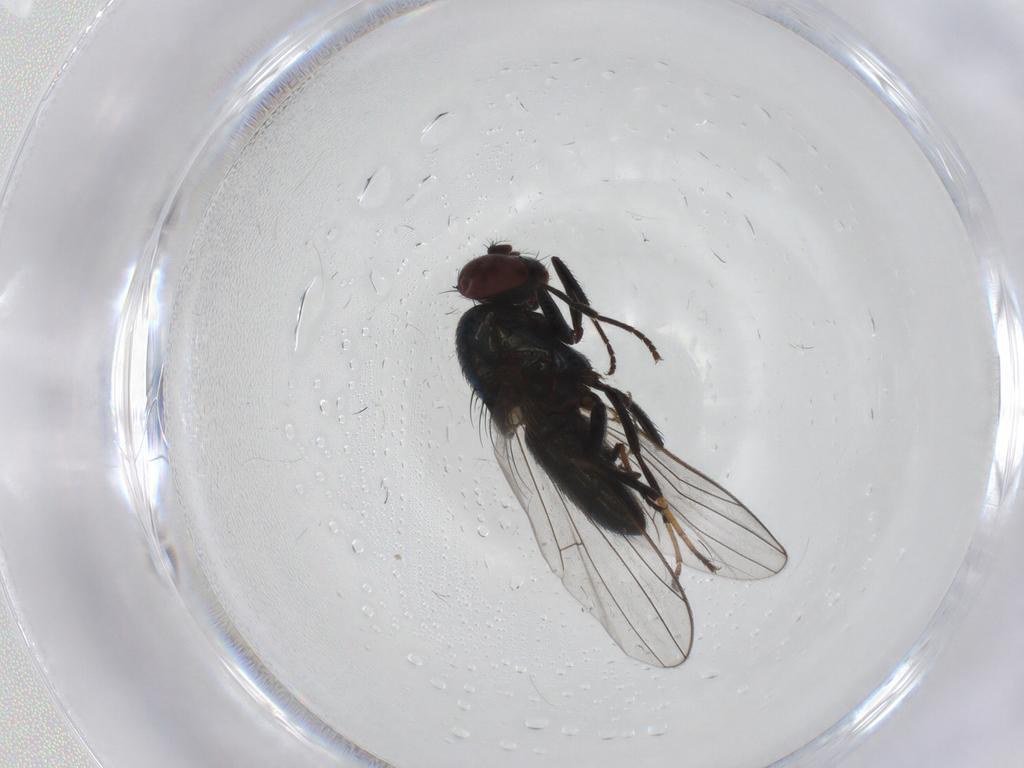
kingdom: Animalia
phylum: Arthropoda
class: Insecta
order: Diptera
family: Chironomidae
